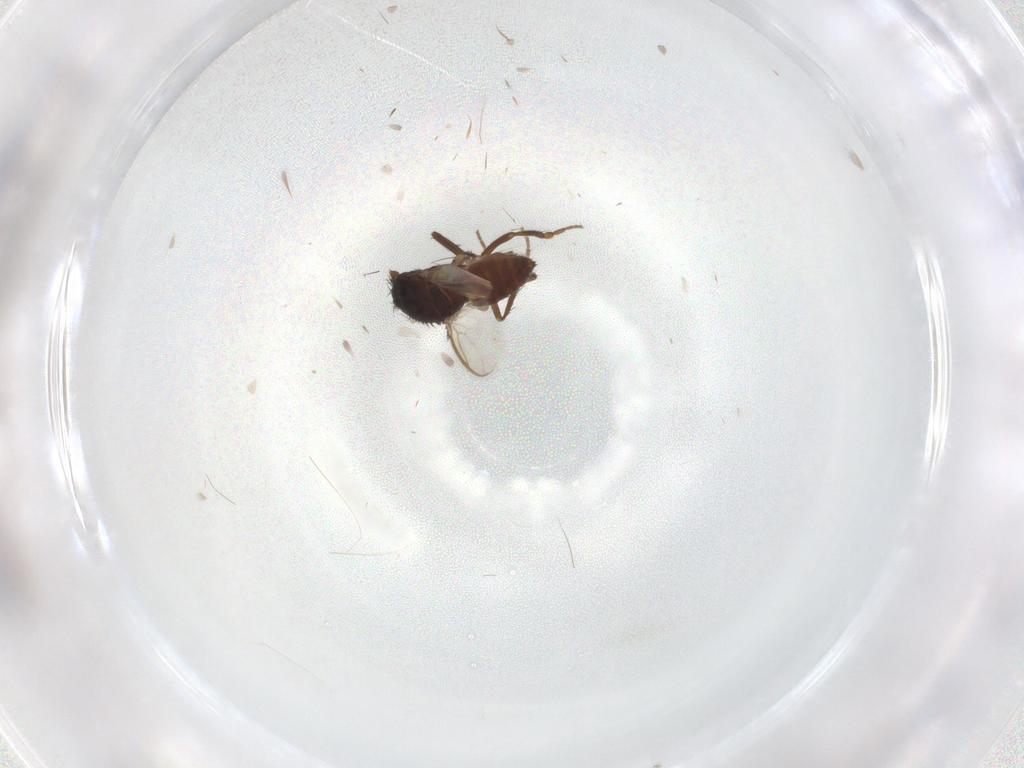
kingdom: Animalia
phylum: Arthropoda
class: Insecta
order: Diptera
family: Sphaeroceridae
